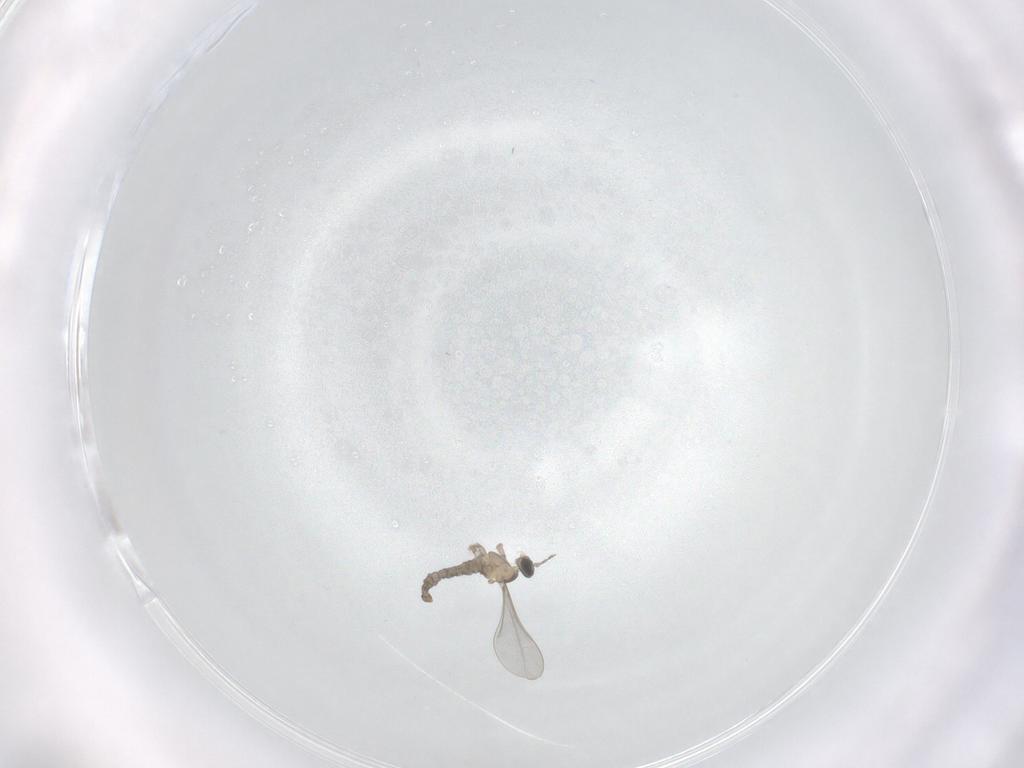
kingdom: Animalia
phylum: Arthropoda
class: Insecta
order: Diptera
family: Cecidomyiidae
